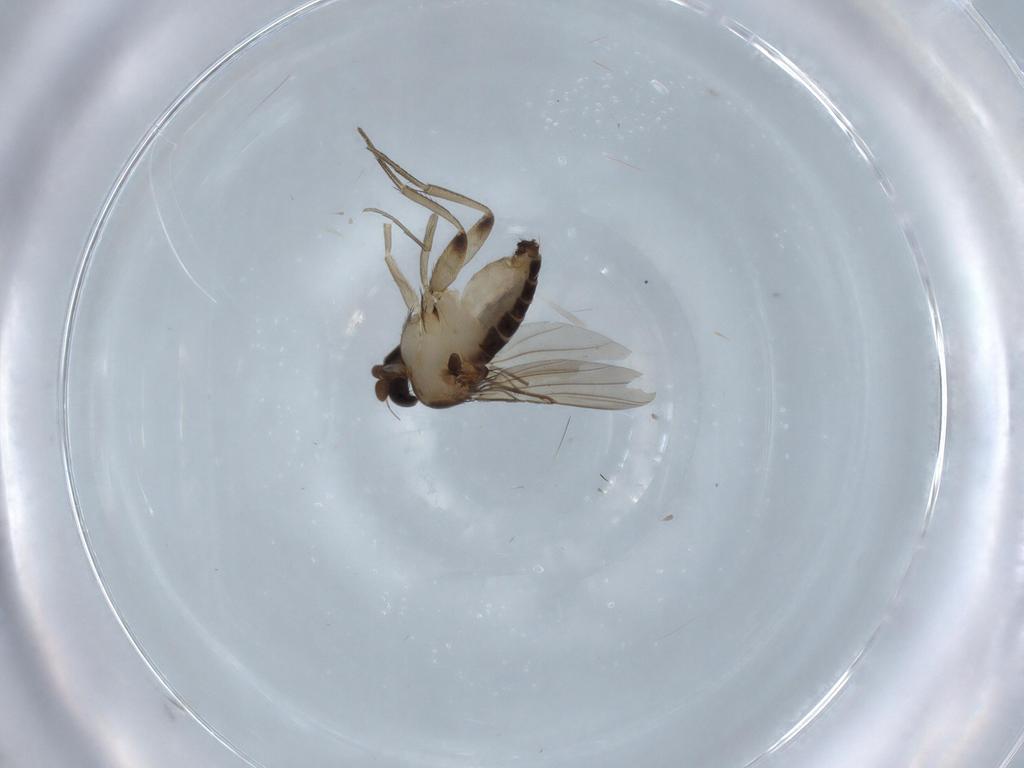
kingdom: Animalia
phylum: Arthropoda
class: Insecta
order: Diptera
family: Phoridae
